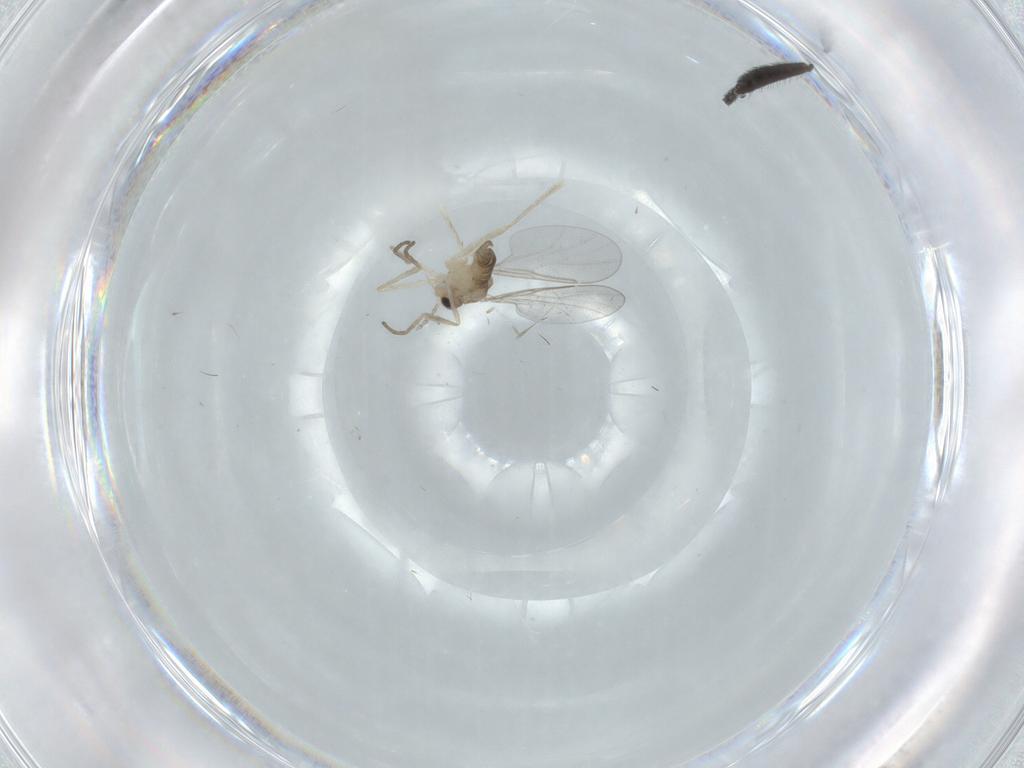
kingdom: Animalia
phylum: Arthropoda
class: Insecta
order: Diptera
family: Cecidomyiidae
